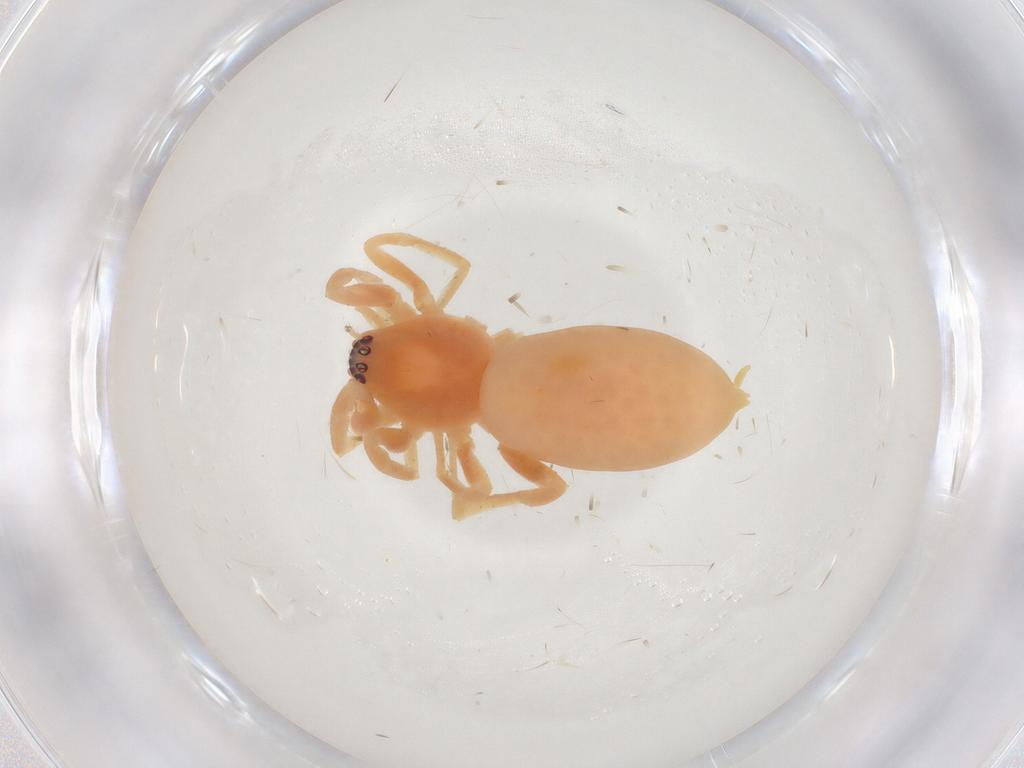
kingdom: Animalia
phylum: Arthropoda
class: Arachnida
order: Araneae
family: Anyphaenidae
